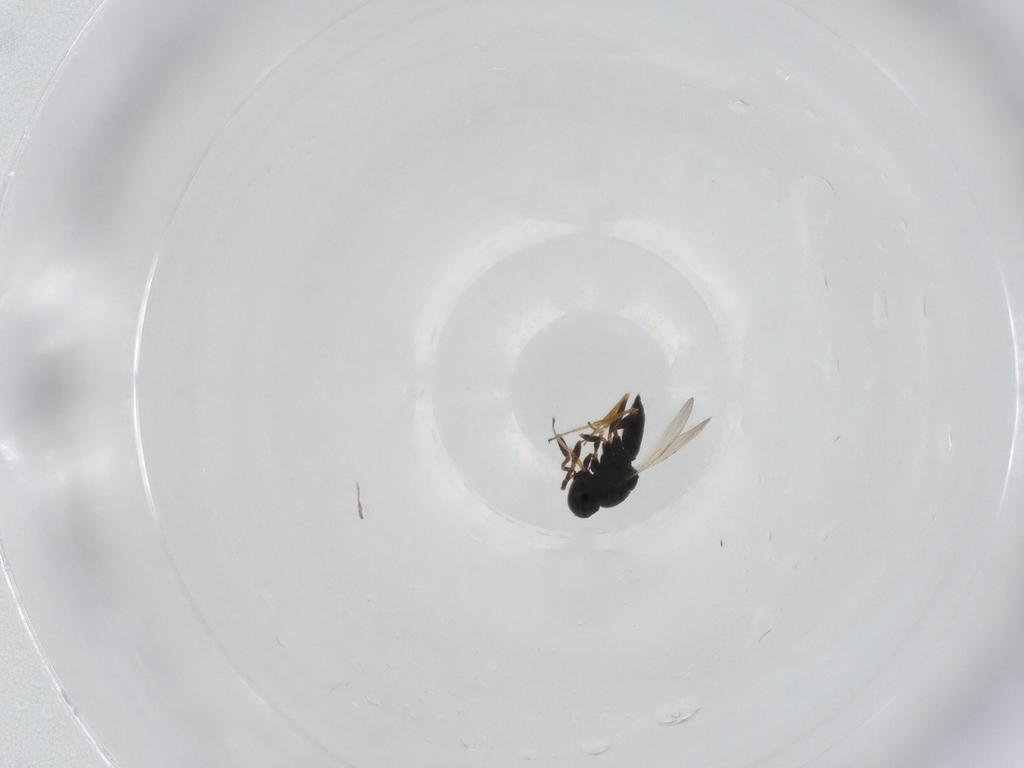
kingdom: Animalia
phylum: Arthropoda
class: Insecta
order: Hymenoptera
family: Scelionidae
